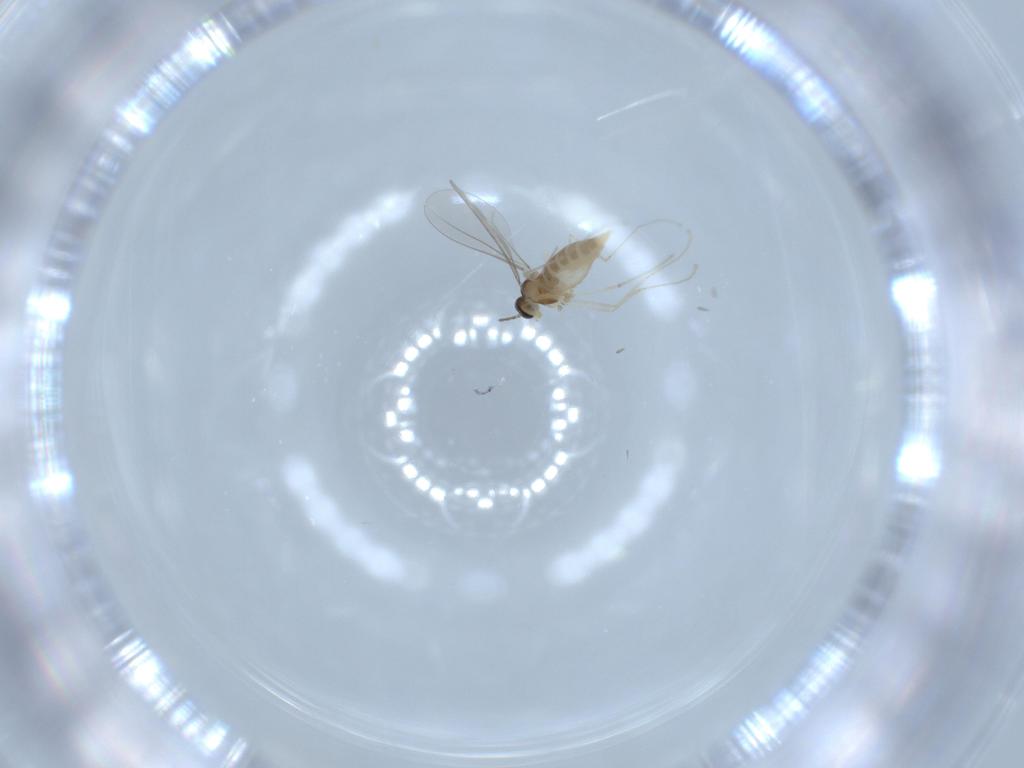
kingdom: Animalia
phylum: Arthropoda
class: Insecta
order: Diptera
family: Cecidomyiidae
